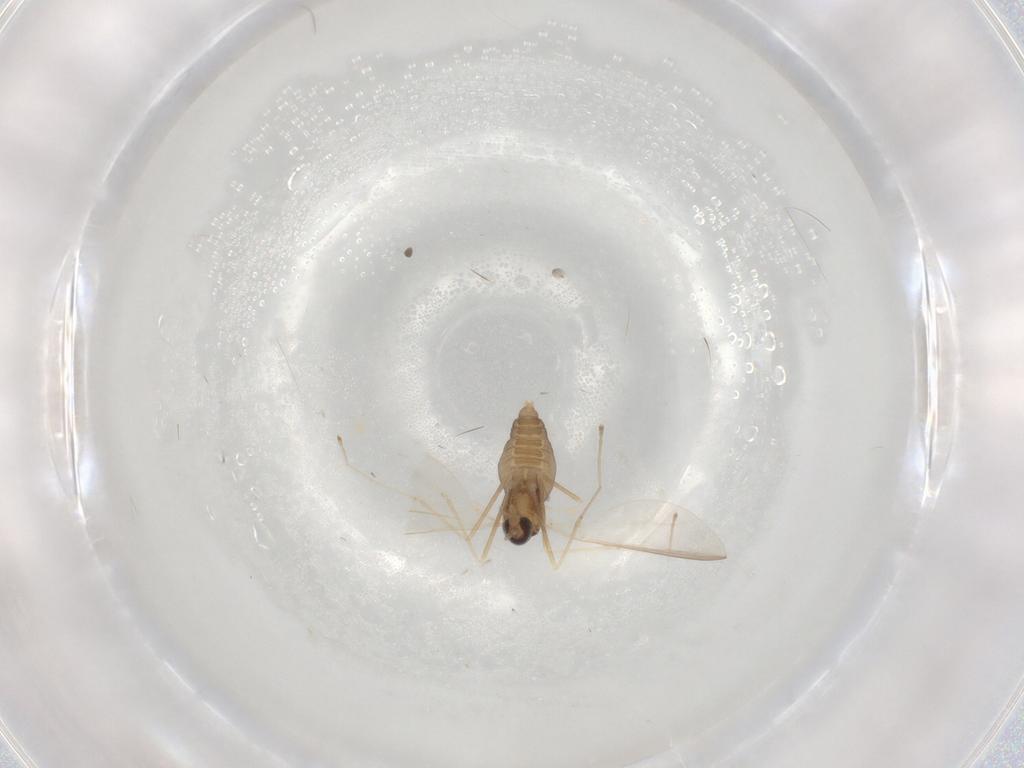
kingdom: Animalia
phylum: Arthropoda
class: Insecta
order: Diptera
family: Cecidomyiidae
